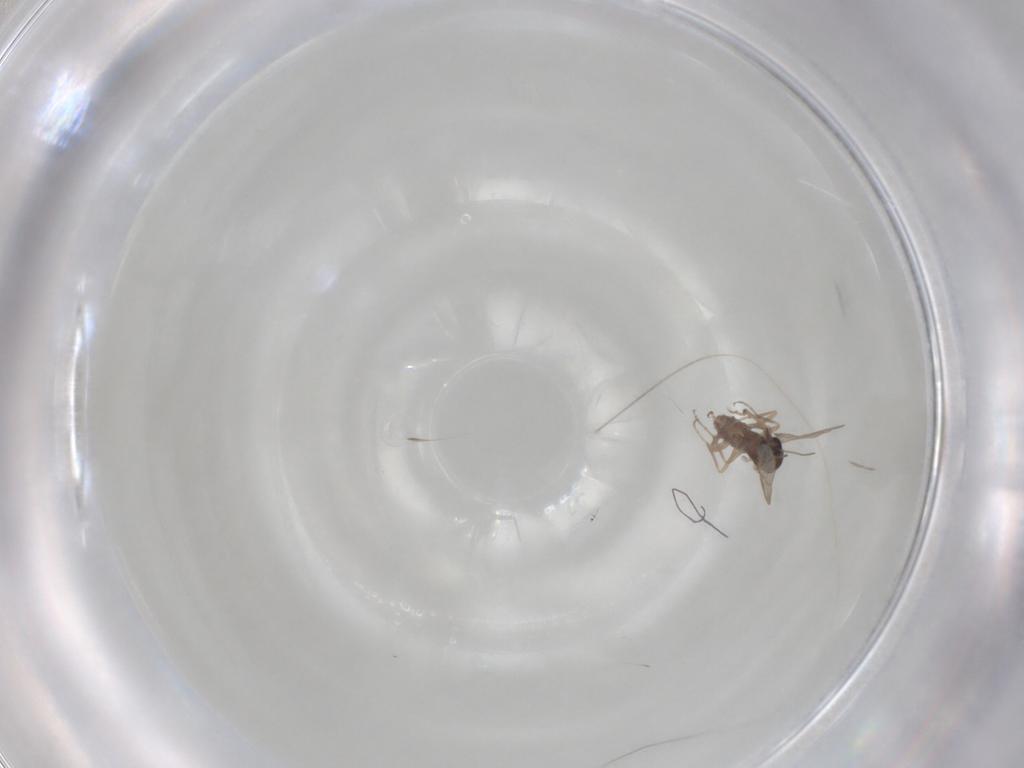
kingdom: Animalia
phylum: Arthropoda
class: Insecta
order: Diptera
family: Ceratopogonidae
